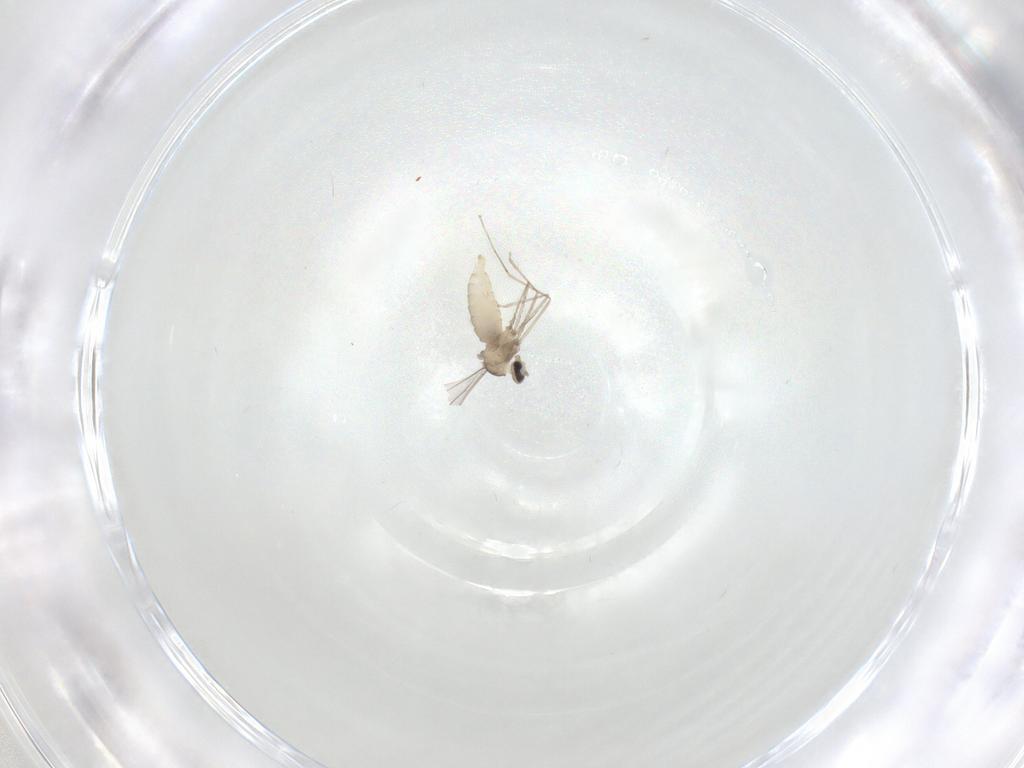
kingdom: Animalia
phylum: Arthropoda
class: Insecta
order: Diptera
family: Cecidomyiidae
